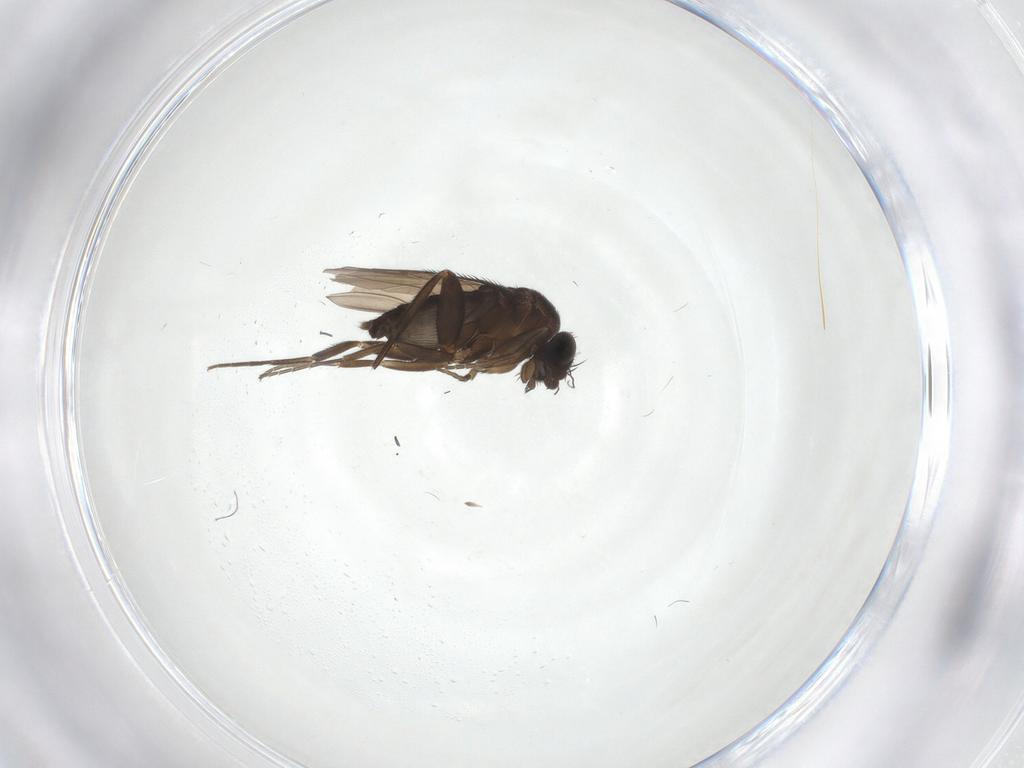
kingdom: Animalia
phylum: Arthropoda
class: Insecta
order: Diptera
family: Phoridae
